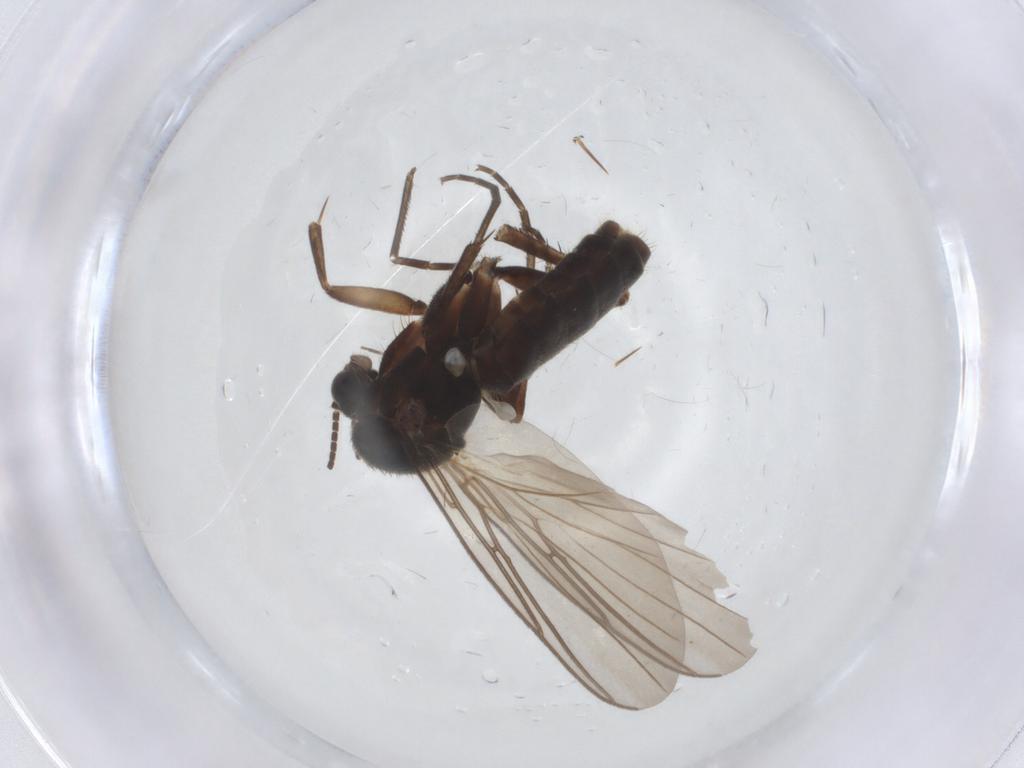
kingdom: Animalia
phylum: Arthropoda
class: Insecta
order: Diptera
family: Mycetophilidae
